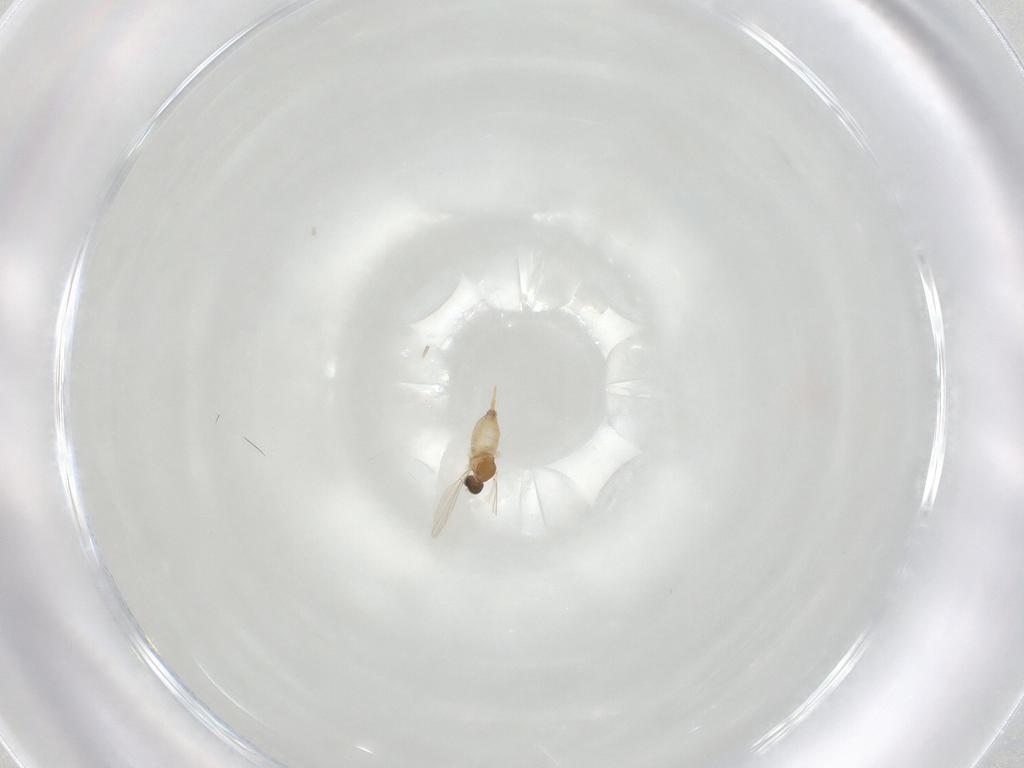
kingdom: Animalia
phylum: Arthropoda
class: Insecta
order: Diptera
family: Cecidomyiidae
